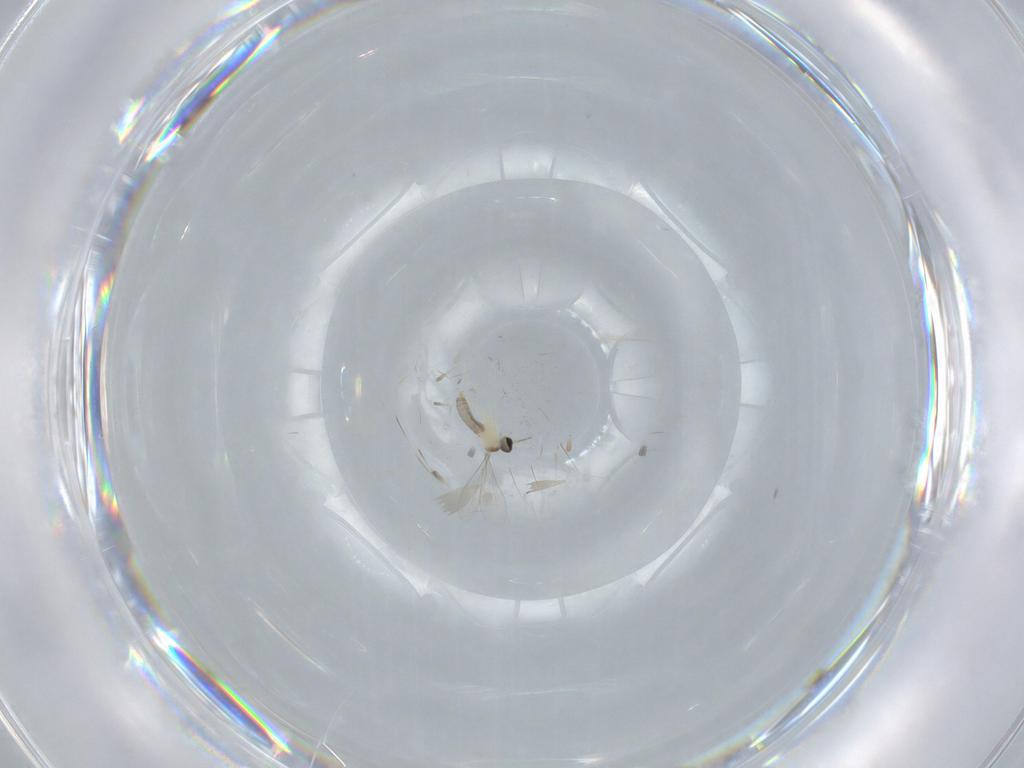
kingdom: Animalia
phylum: Arthropoda
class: Insecta
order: Diptera
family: Tabanidae
